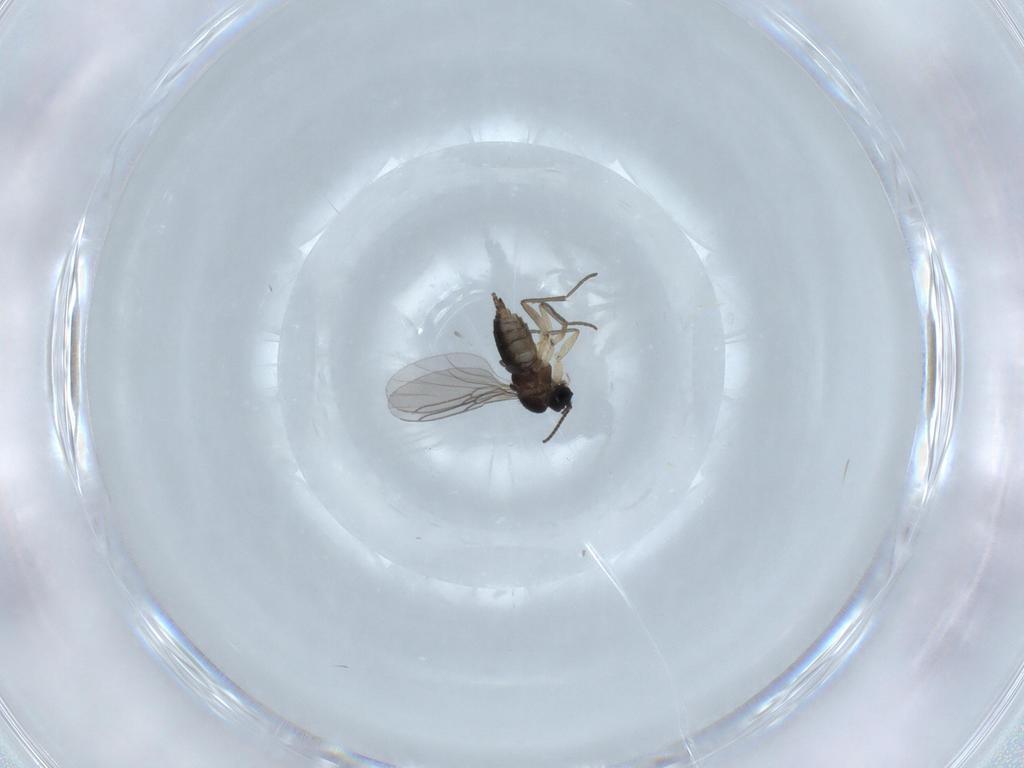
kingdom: Animalia
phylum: Arthropoda
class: Insecta
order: Diptera
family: Sciaridae
